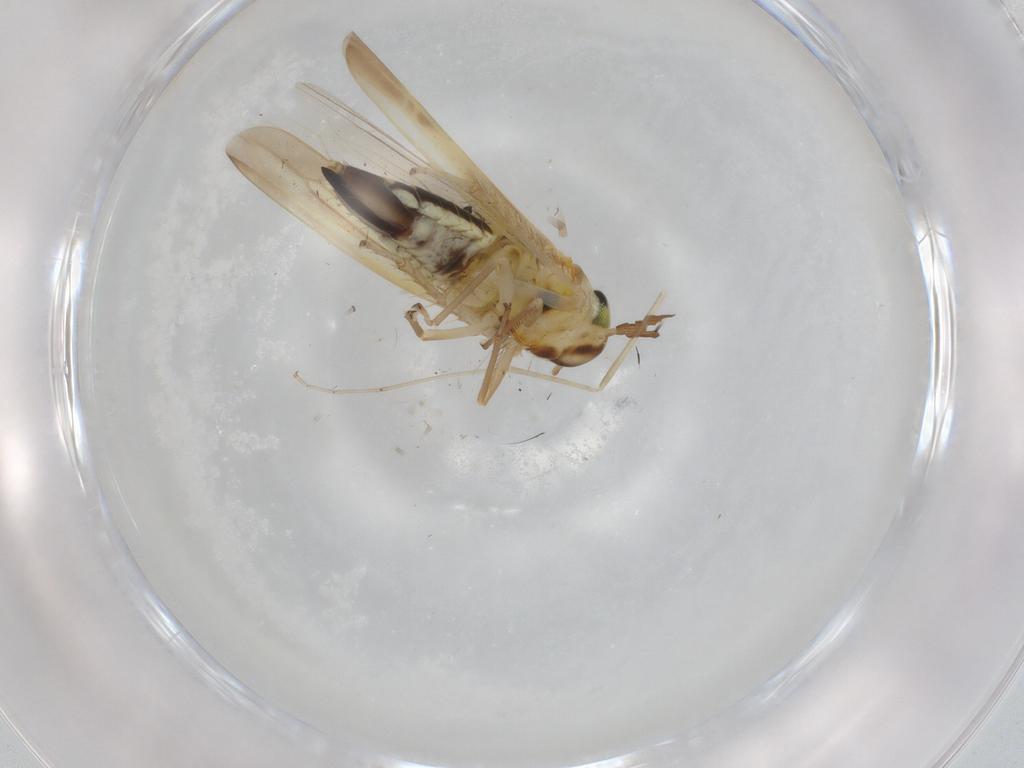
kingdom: Animalia
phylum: Arthropoda
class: Insecta
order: Hemiptera
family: Cicadellidae
